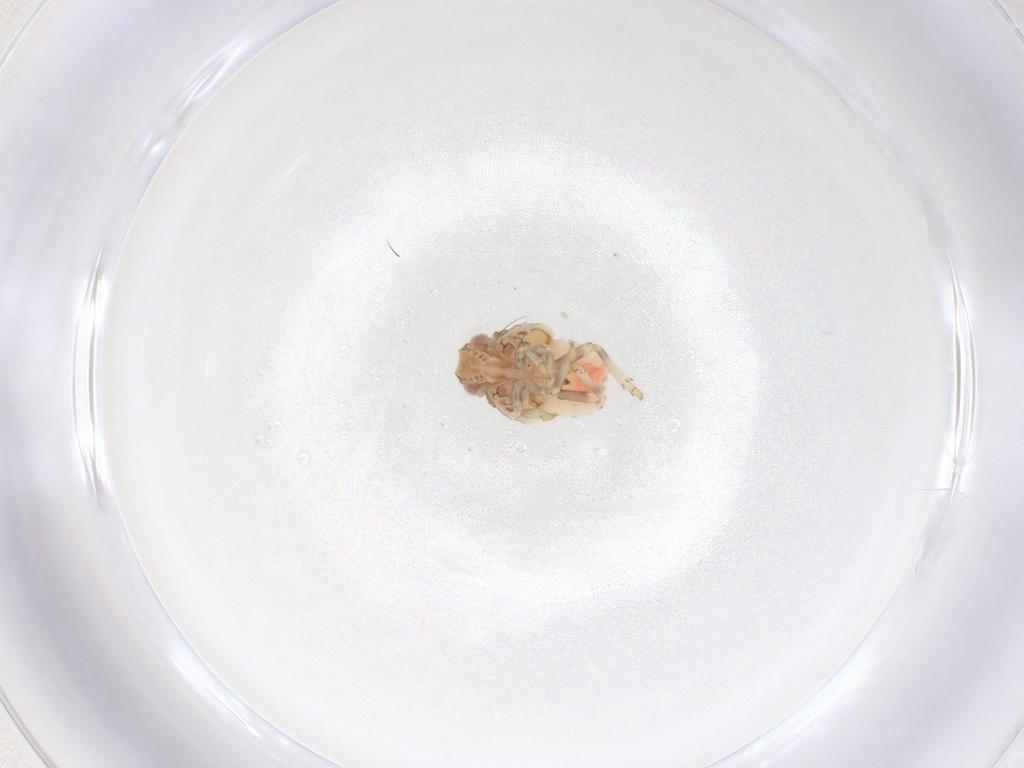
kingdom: Animalia
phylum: Arthropoda
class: Insecta
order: Hemiptera
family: Nogodinidae
